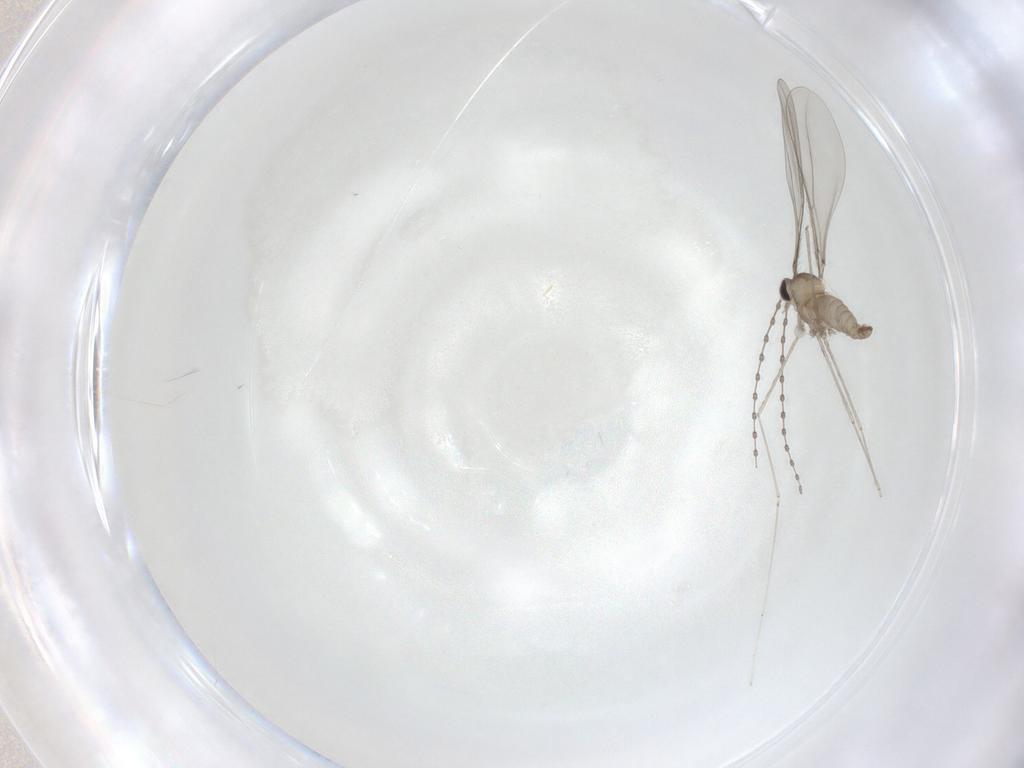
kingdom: Animalia
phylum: Arthropoda
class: Insecta
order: Diptera
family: Cecidomyiidae
